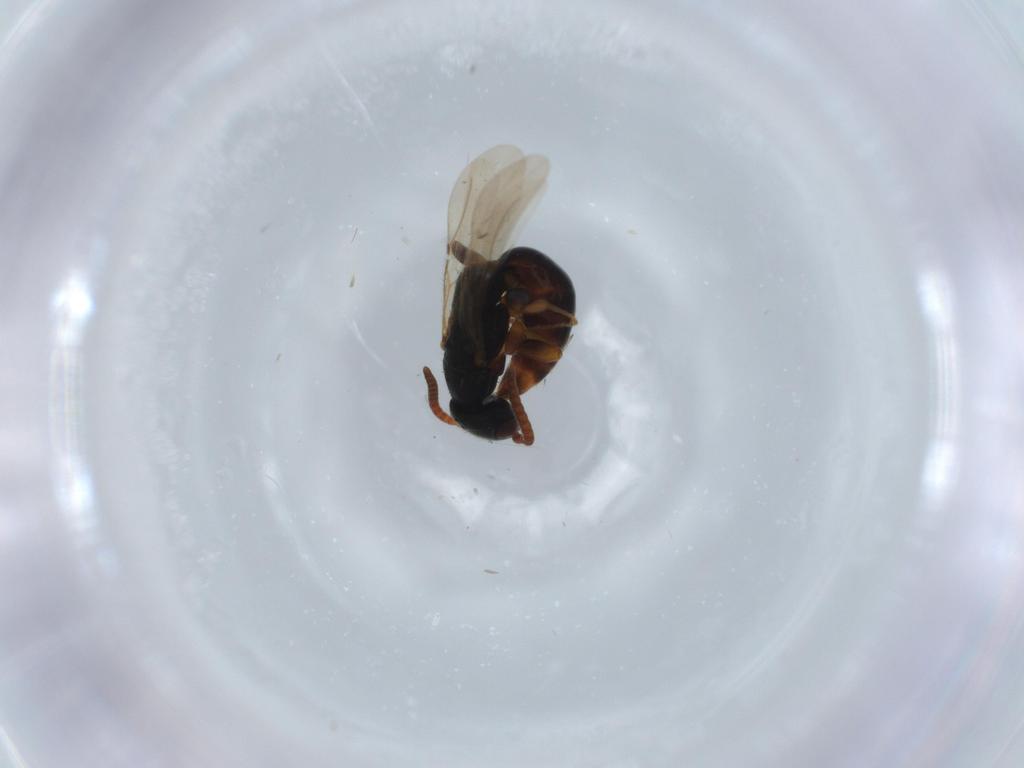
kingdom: Animalia
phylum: Arthropoda
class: Insecta
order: Hymenoptera
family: Bethylidae
